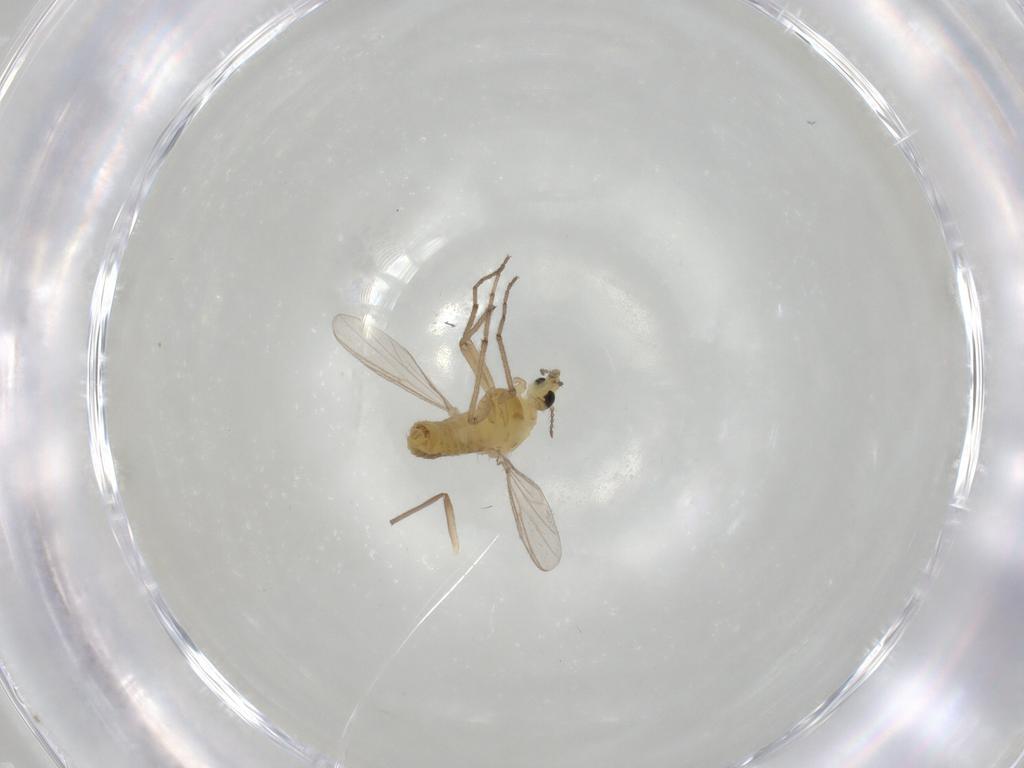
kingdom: Animalia
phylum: Arthropoda
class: Insecta
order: Diptera
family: Chironomidae
